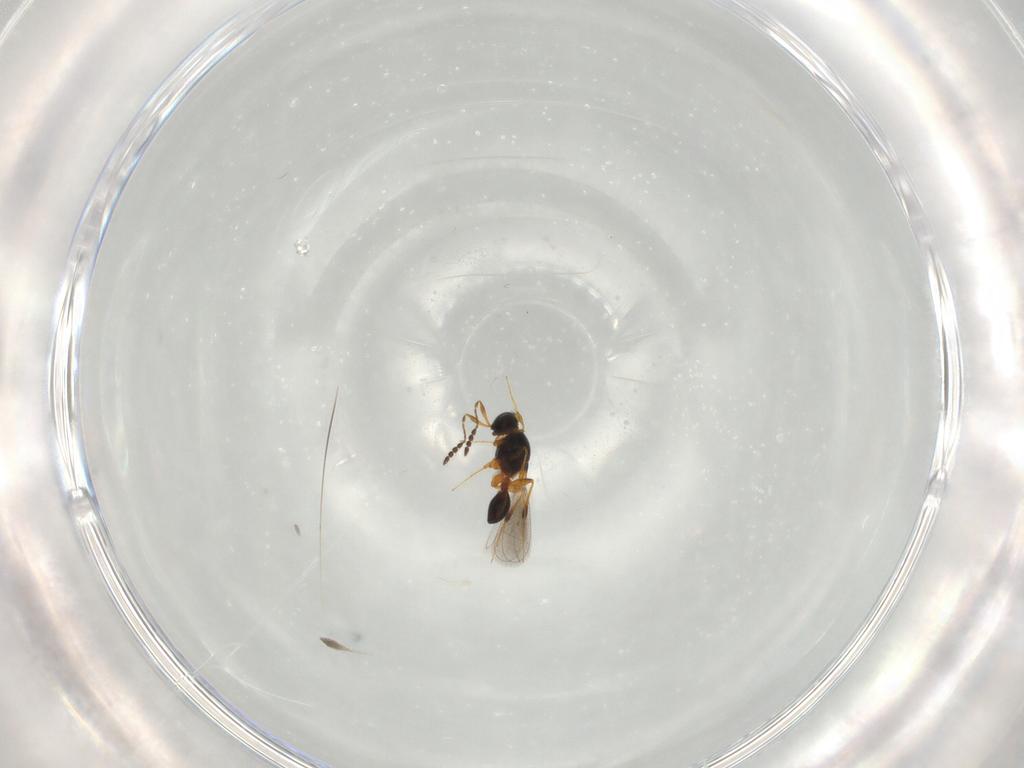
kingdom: Animalia
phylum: Arthropoda
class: Insecta
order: Hymenoptera
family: Platygastridae
